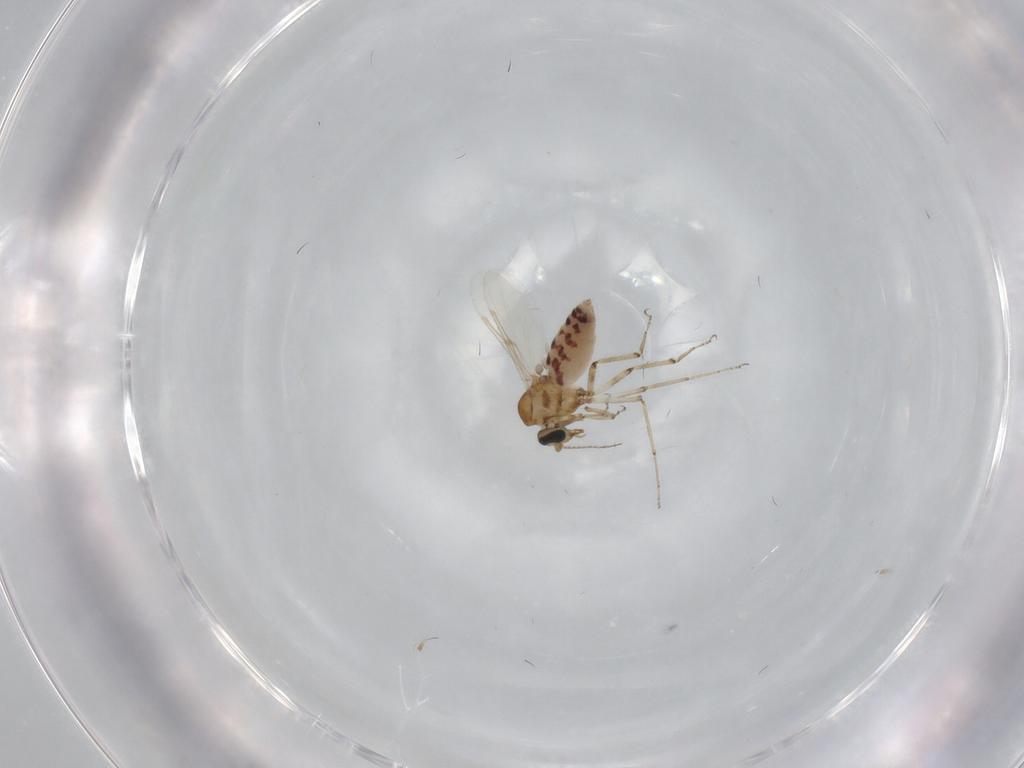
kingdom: Animalia
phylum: Arthropoda
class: Insecta
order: Diptera
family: Ceratopogonidae
